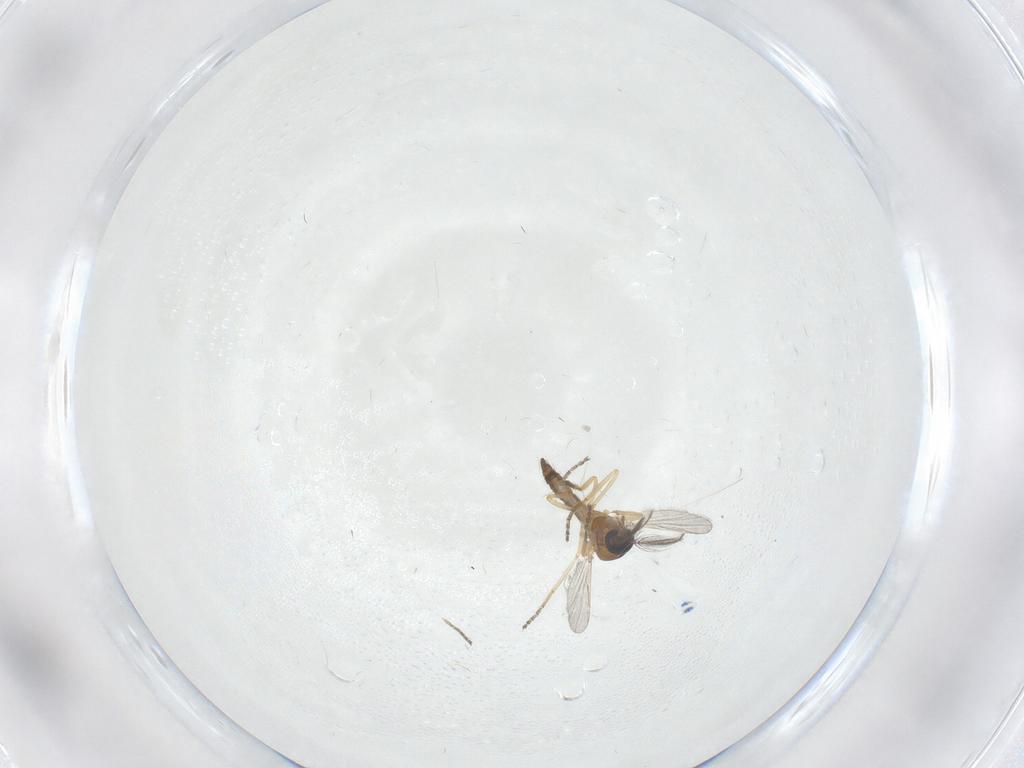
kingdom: Animalia
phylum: Arthropoda
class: Insecta
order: Diptera
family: Ceratopogonidae
